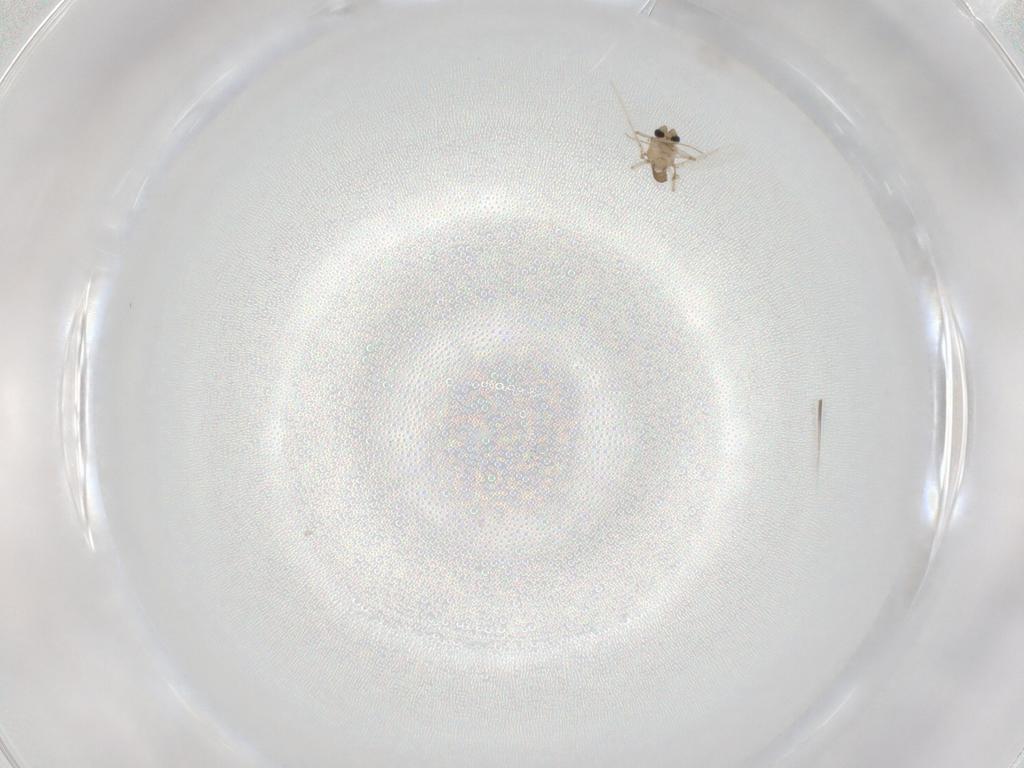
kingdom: Animalia
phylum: Arthropoda
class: Insecta
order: Diptera
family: Ceratopogonidae
